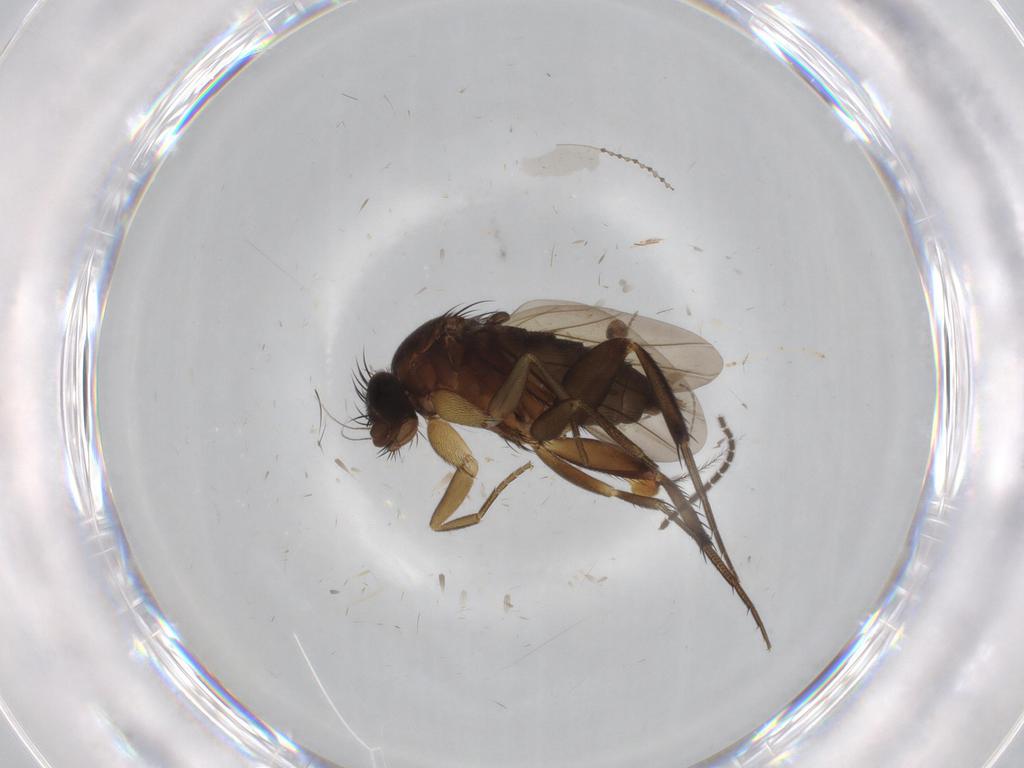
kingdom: Animalia
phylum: Arthropoda
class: Insecta
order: Diptera
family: Phoridae
